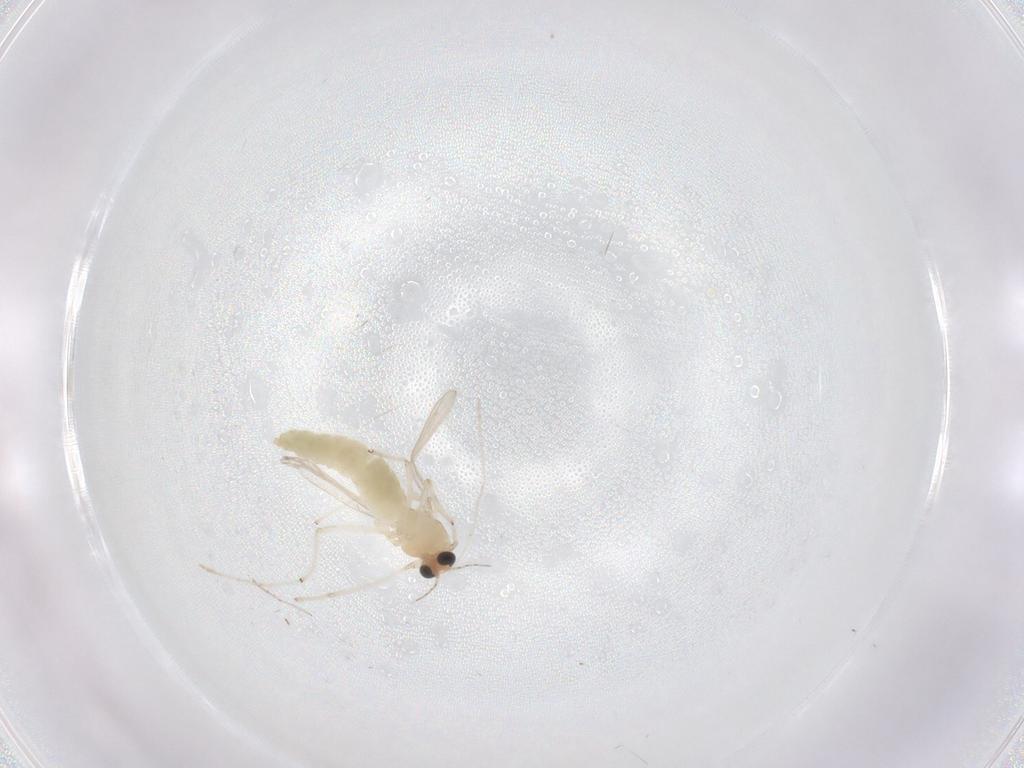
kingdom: Animalia
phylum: Arthropoda
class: Insecta
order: Diptera
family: Chironomidae
